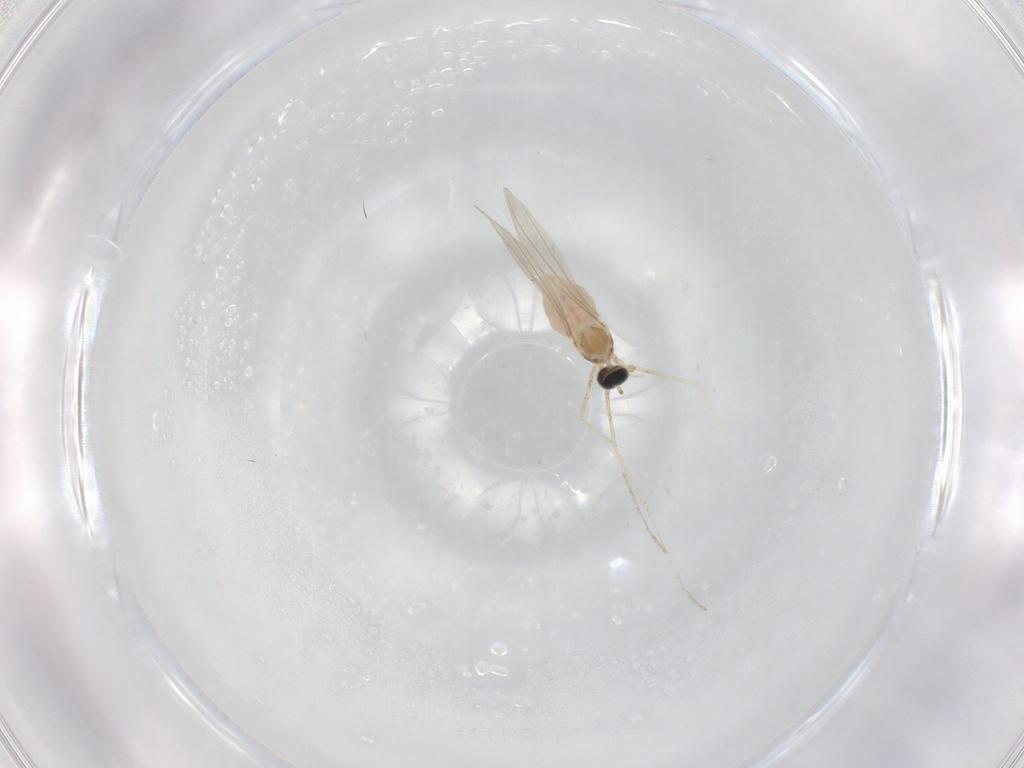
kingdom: Animalia
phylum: Arthropoda
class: Insecta
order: Diptera
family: Cecidomyiidae
